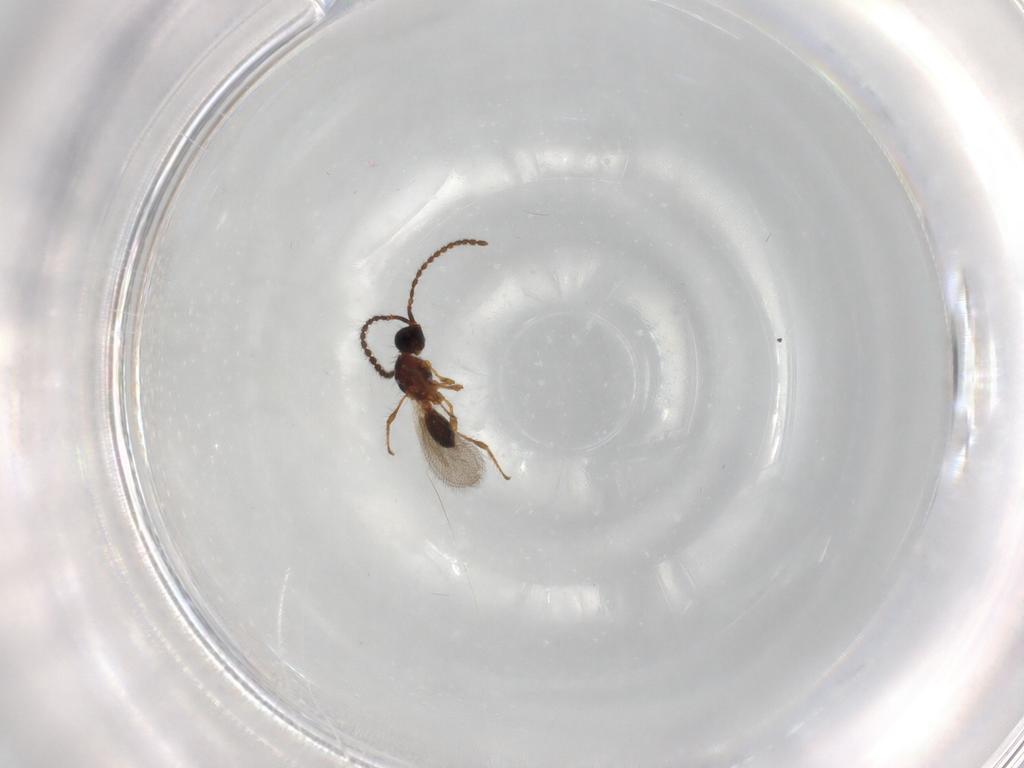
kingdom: Animalia
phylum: Arthropoda
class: Insecta
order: Hymenoptera
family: Diapriidae
